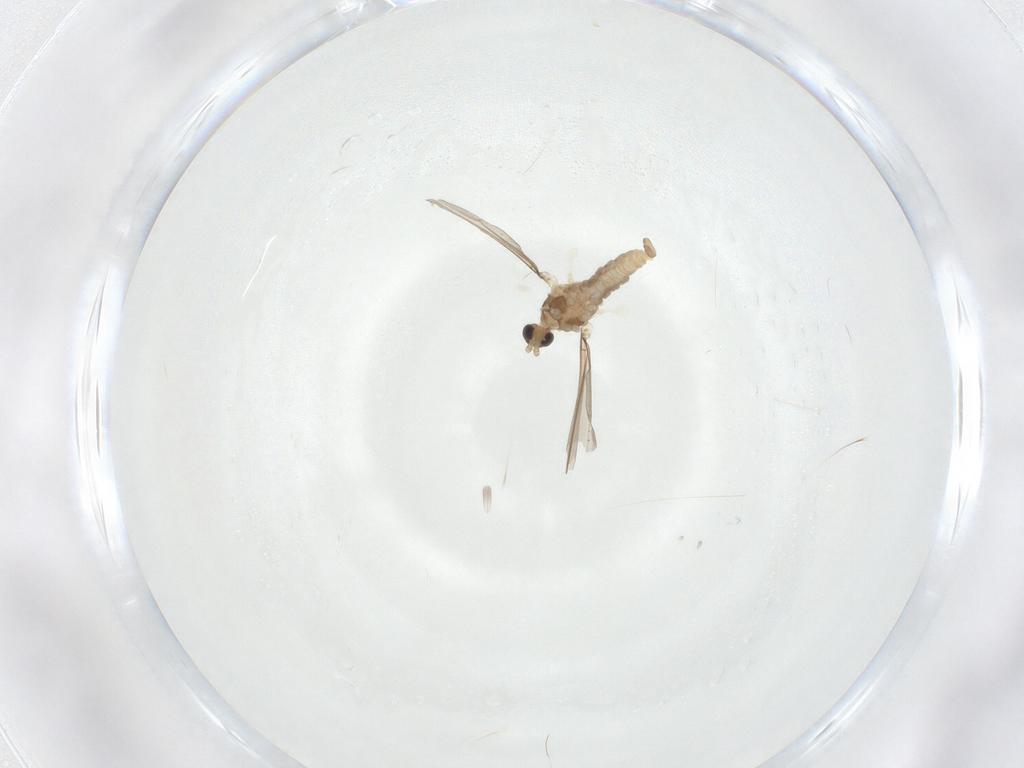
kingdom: Animalia
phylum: Arthropoda
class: Insecta
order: Diptera
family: Cecidomyiidae
